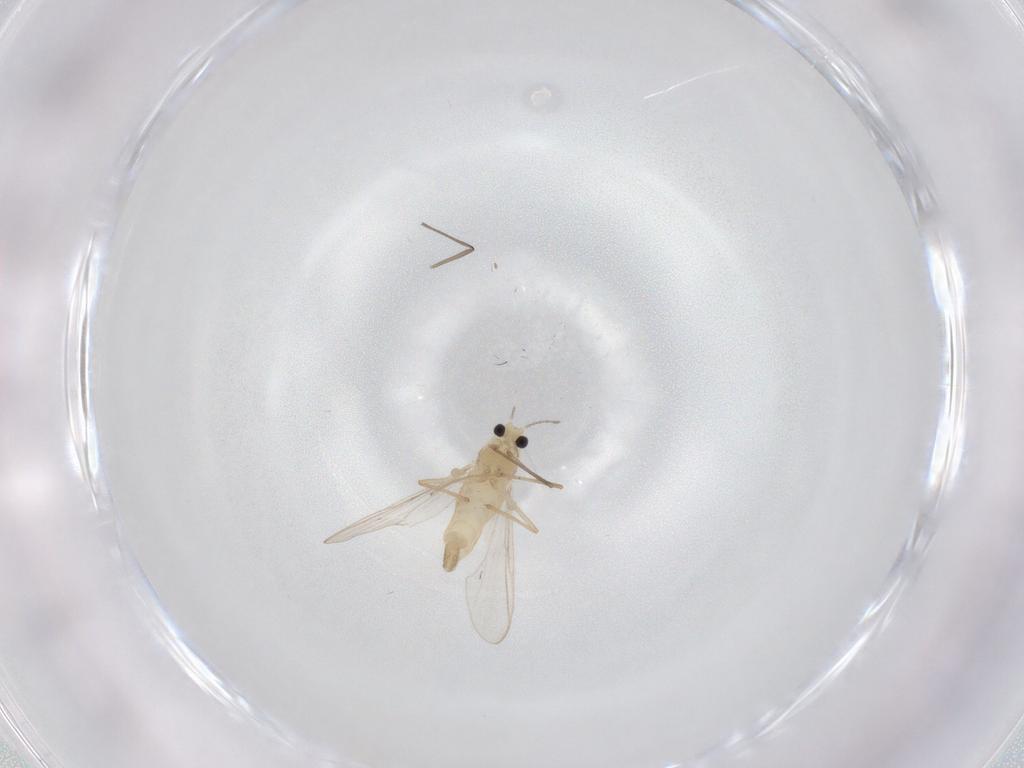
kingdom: Animalia
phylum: Arthropoda
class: Insecta
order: Diptera
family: Chironomidae
